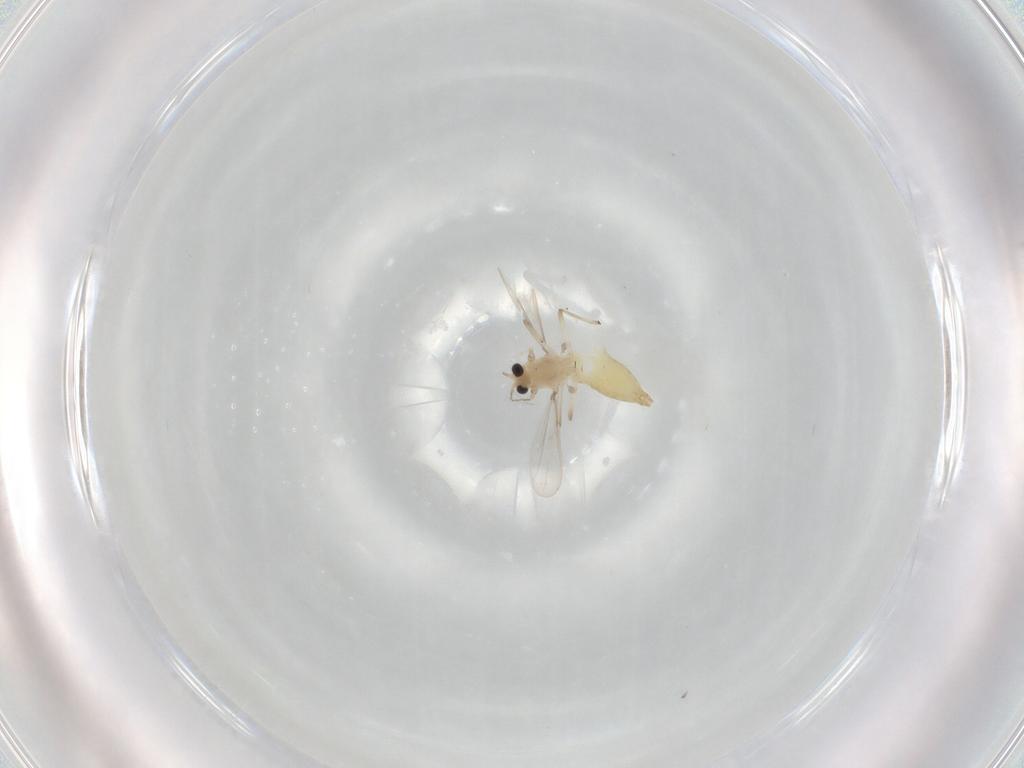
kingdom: Animalia
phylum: Arthropoda
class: Insecta
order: Diptera
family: Chironomidae
